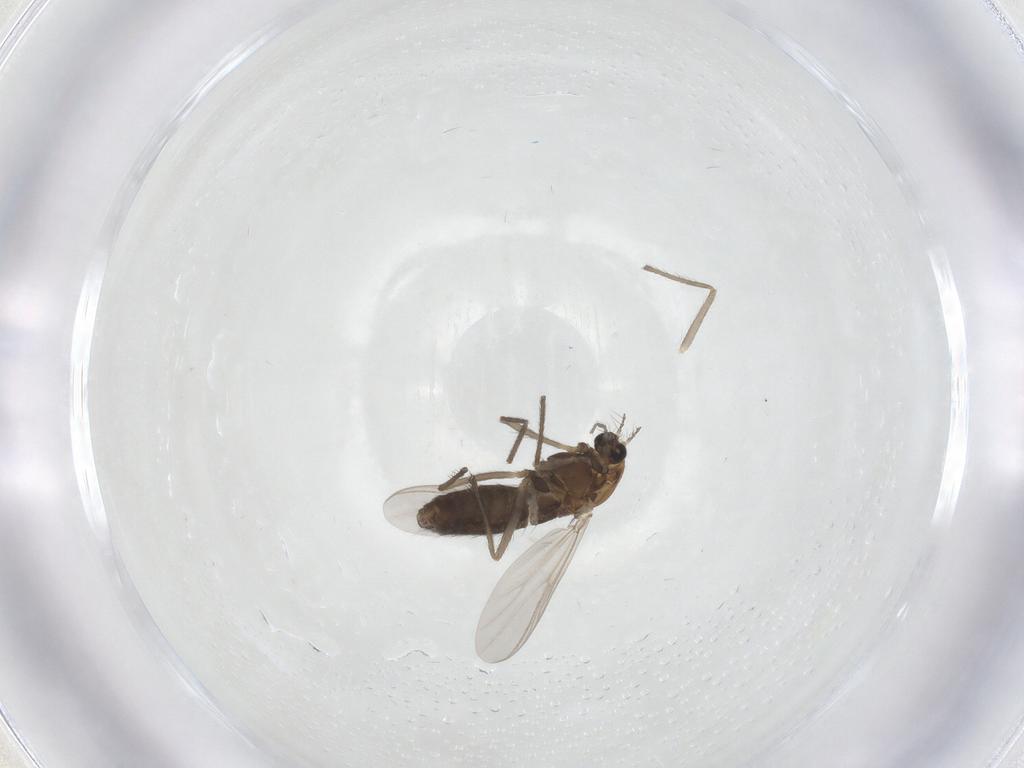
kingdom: Animalia
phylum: Arthropoda
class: Insecta
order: Diptera
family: Chironomidae
